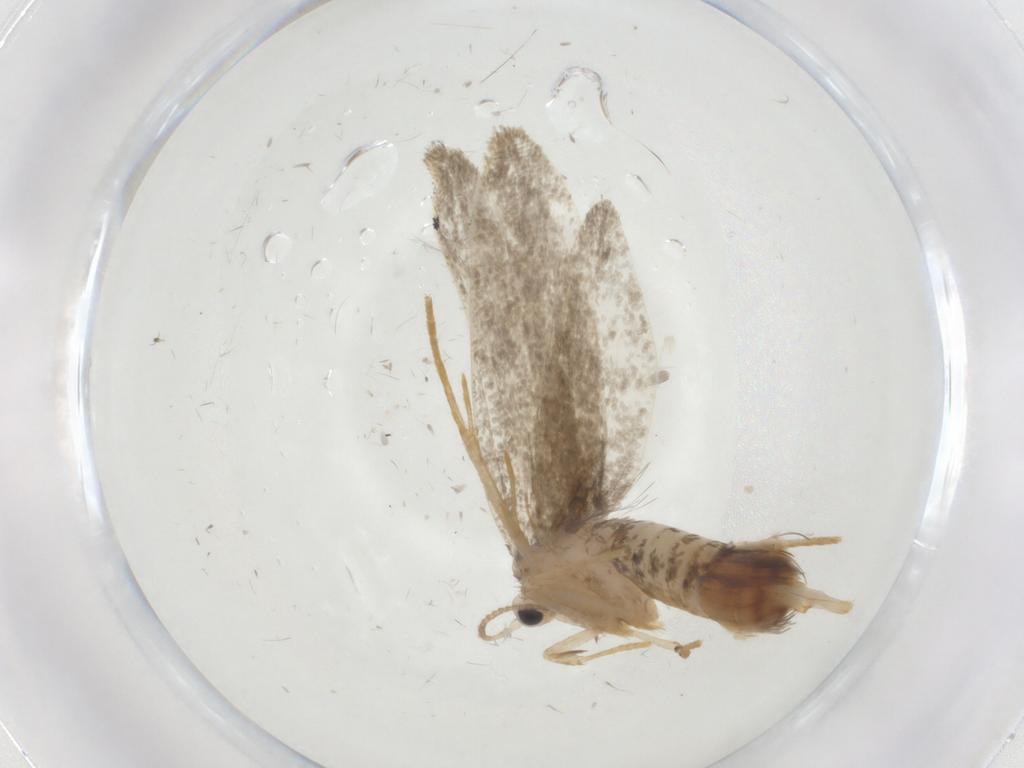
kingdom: Animalia
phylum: Arthropoda
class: Insecta
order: Lepidoptera
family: Psychidae
